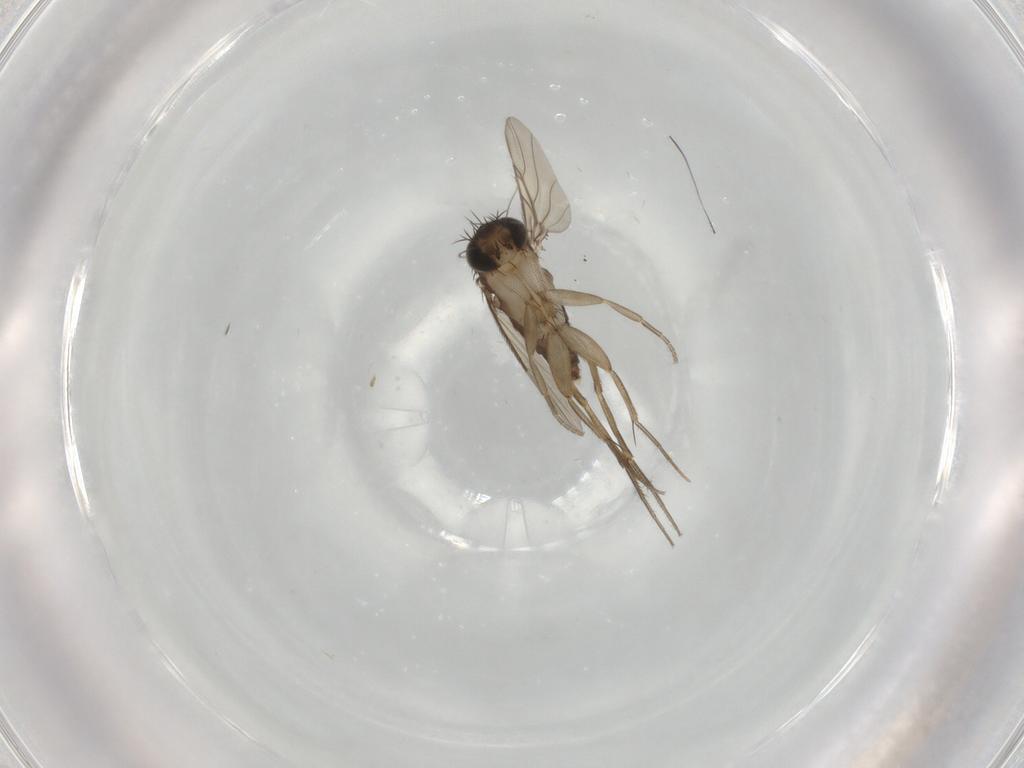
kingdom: Animalia
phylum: Arthropoda
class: Insecta
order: Diptera
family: Phoridae
